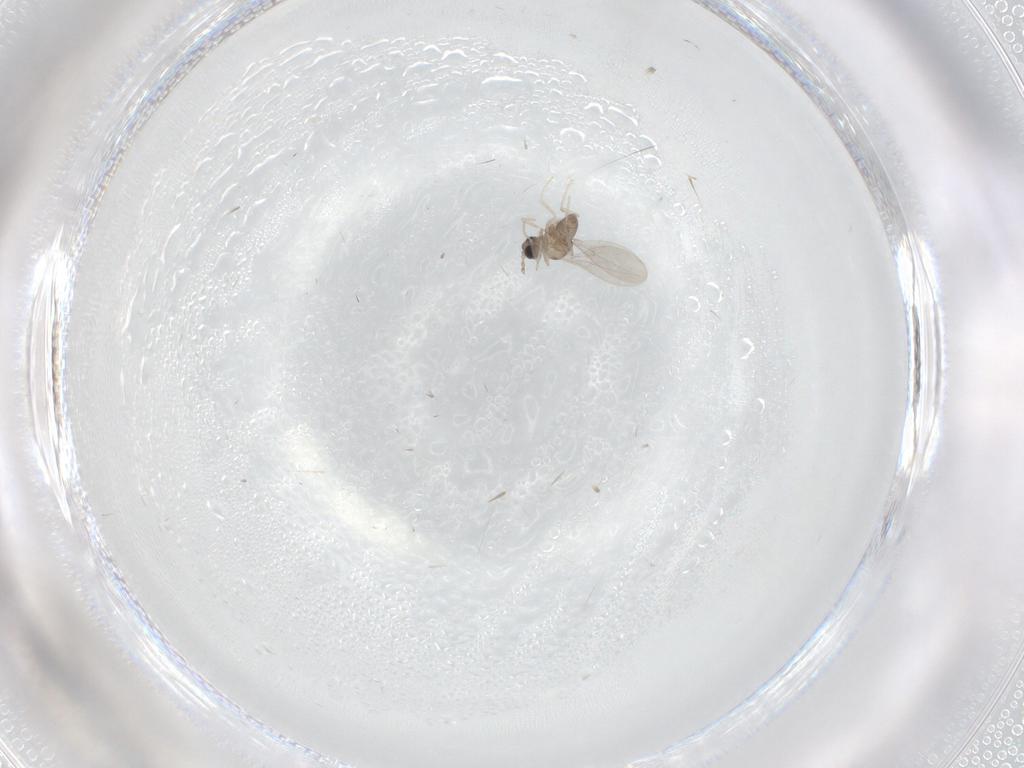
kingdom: Animalia
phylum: Arthropoda
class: Insecta
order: Diptera
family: Cecidomyiidae
